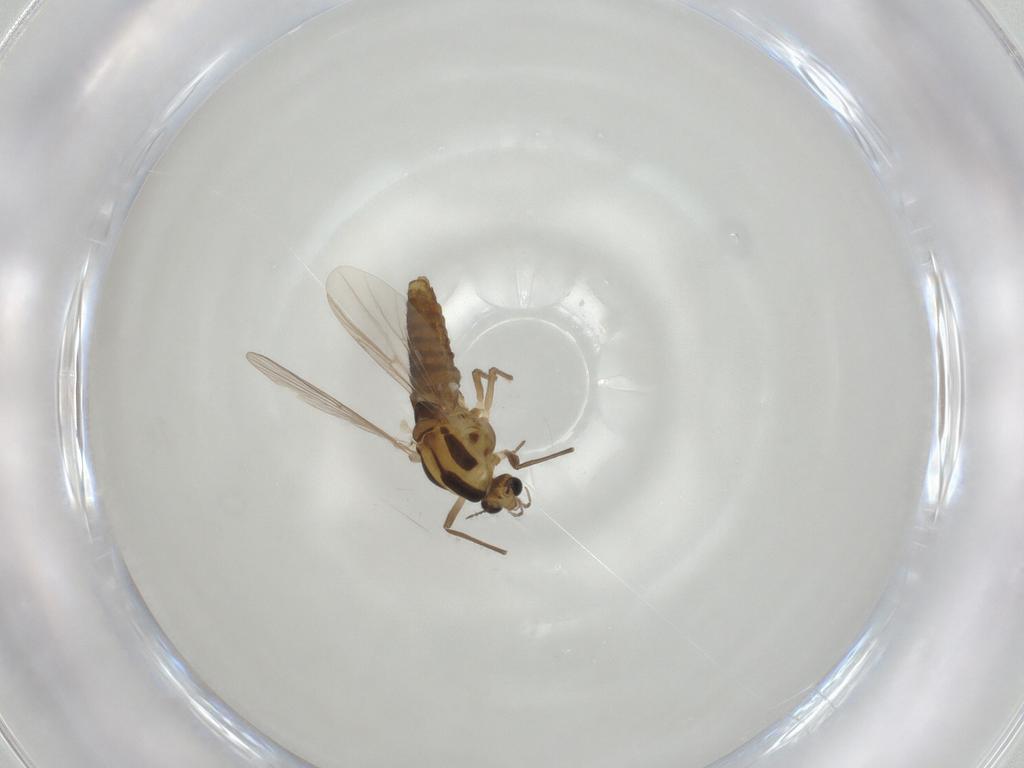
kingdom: Animalia
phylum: Arthropoda
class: Insecta
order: Diptera
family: Chironomidae
